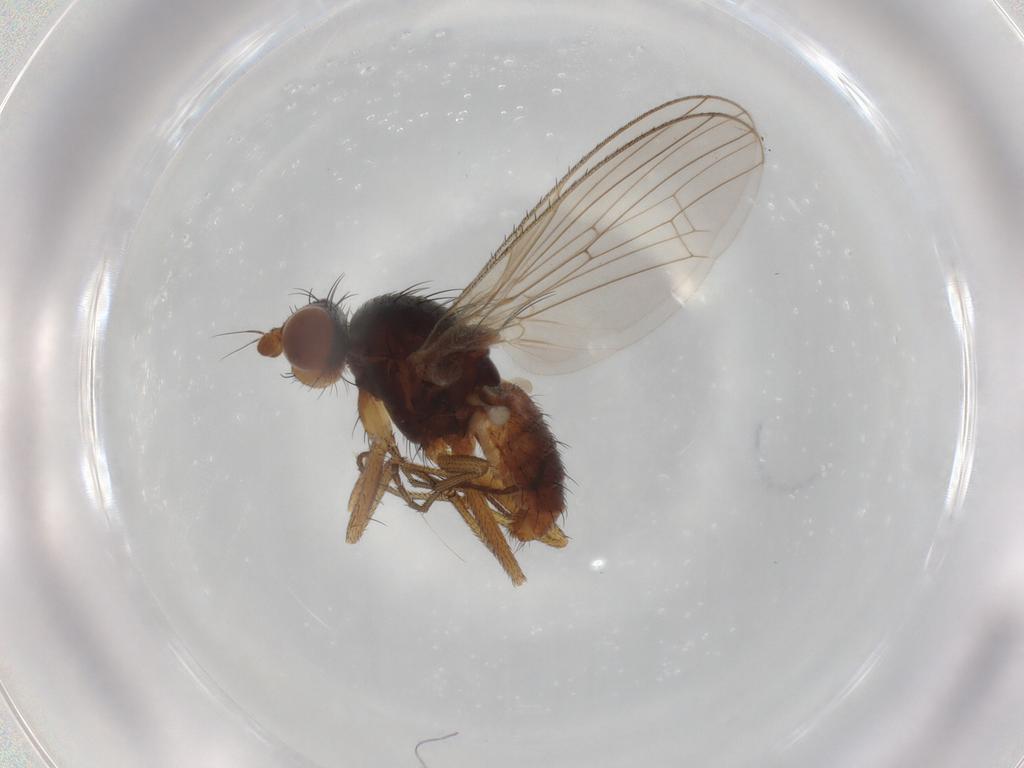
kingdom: Animalia
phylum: Arthropoda
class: Insecta
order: Diptera
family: Heleomyzidae
